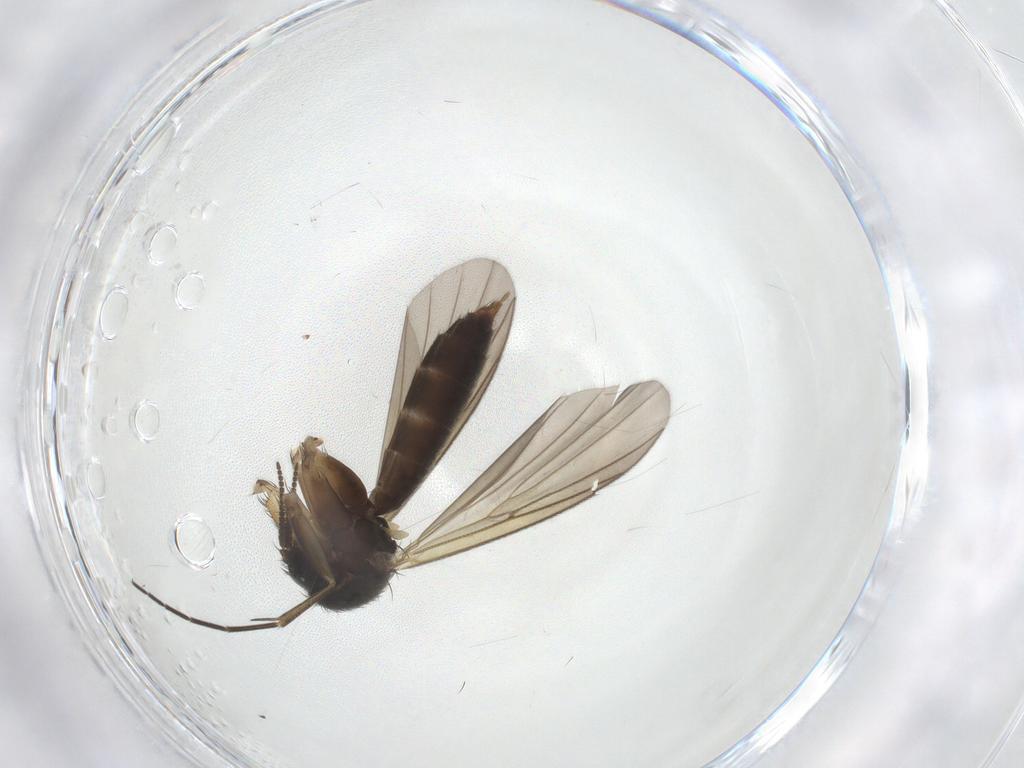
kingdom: Animalia
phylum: Arthropoda
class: Insecta
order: Diptera
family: Mycetophilidae
